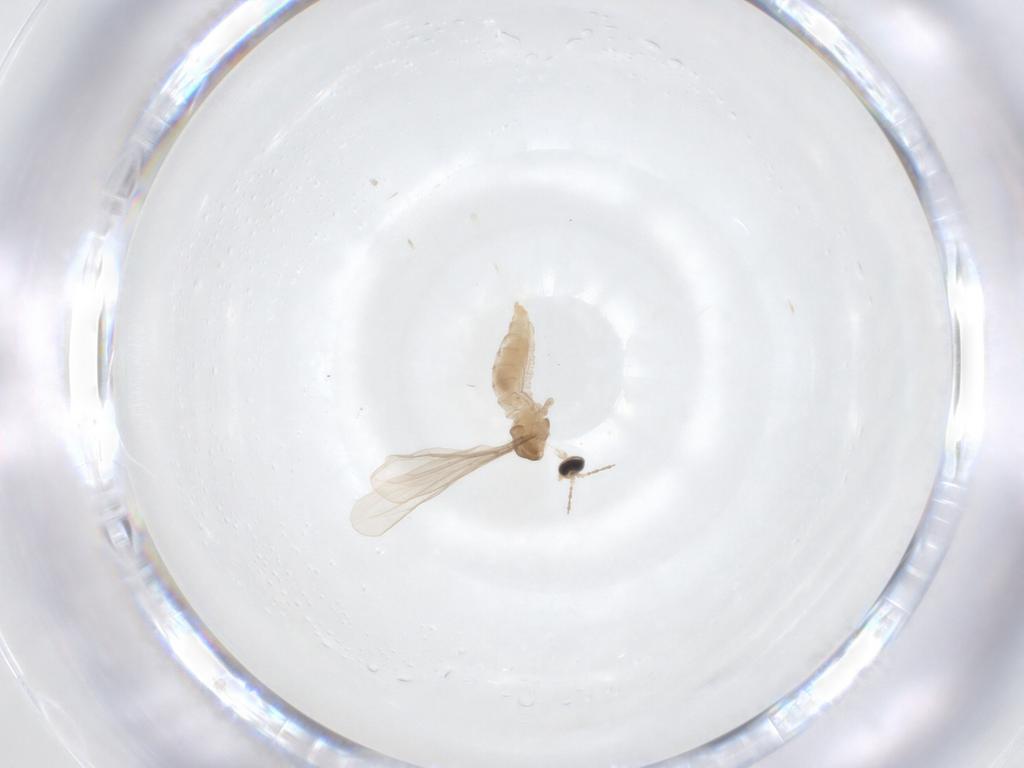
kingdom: Animalia
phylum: Arthropoda
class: Insecta
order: Diptera
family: Cecidomyiidae
